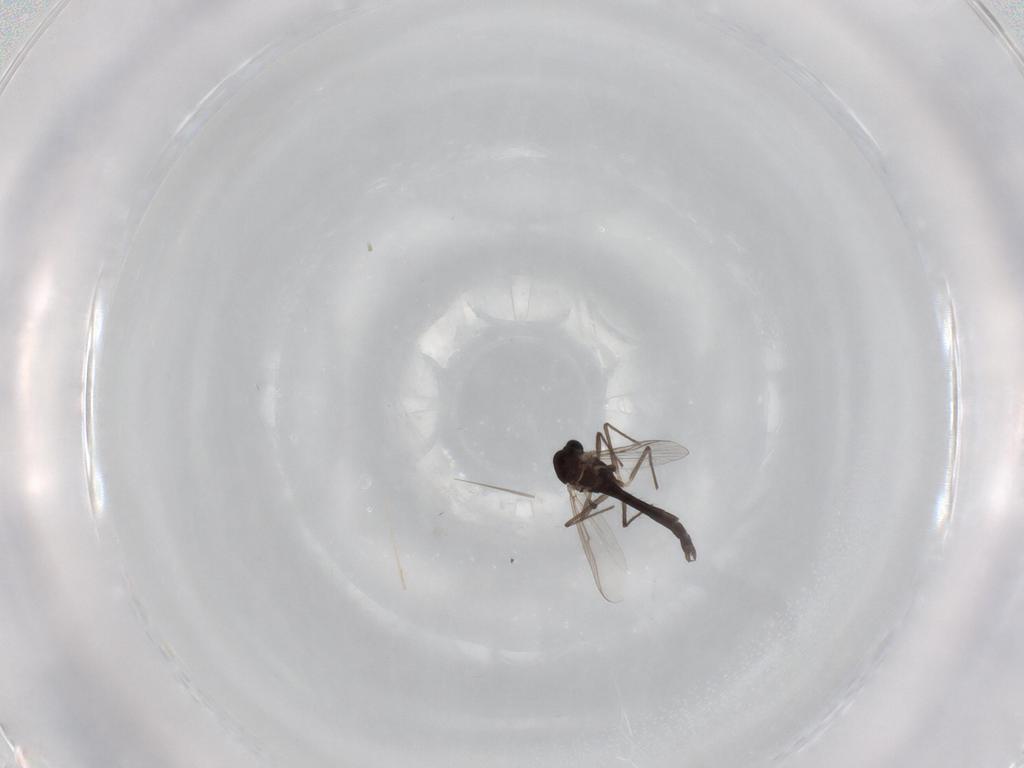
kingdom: Animalia
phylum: Arthropoda
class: Insecta
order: Diptera
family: Chironomidae
